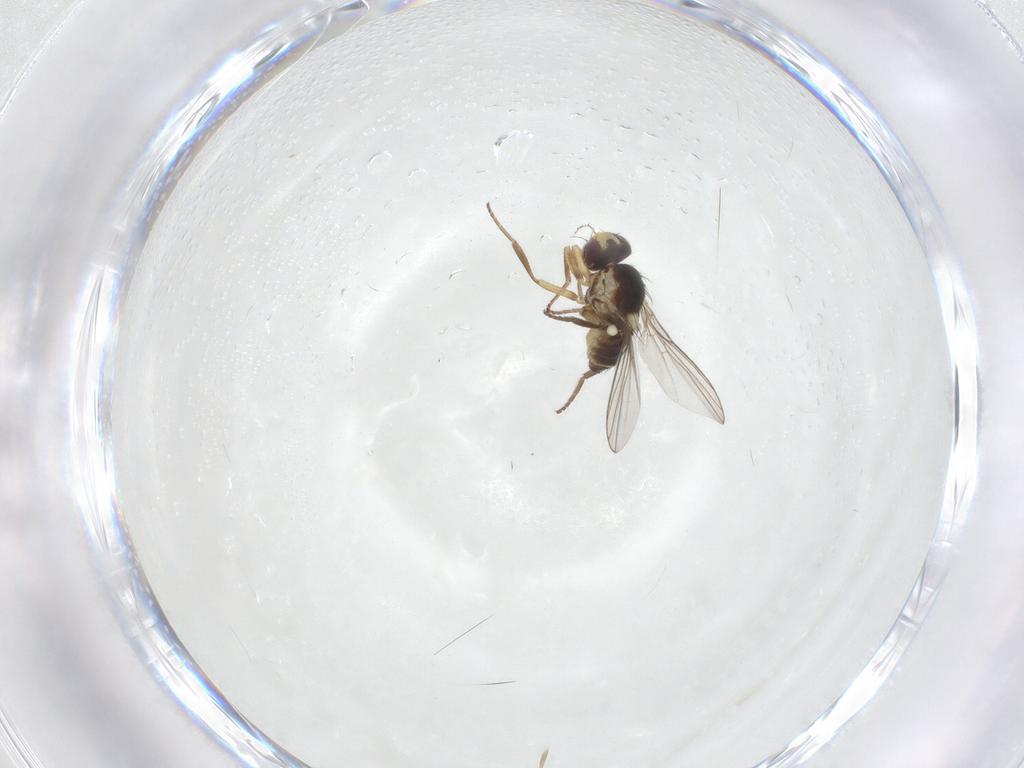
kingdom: Animalia
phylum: Arthropoda
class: Insecta
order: Diptera
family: Agromyzidae
